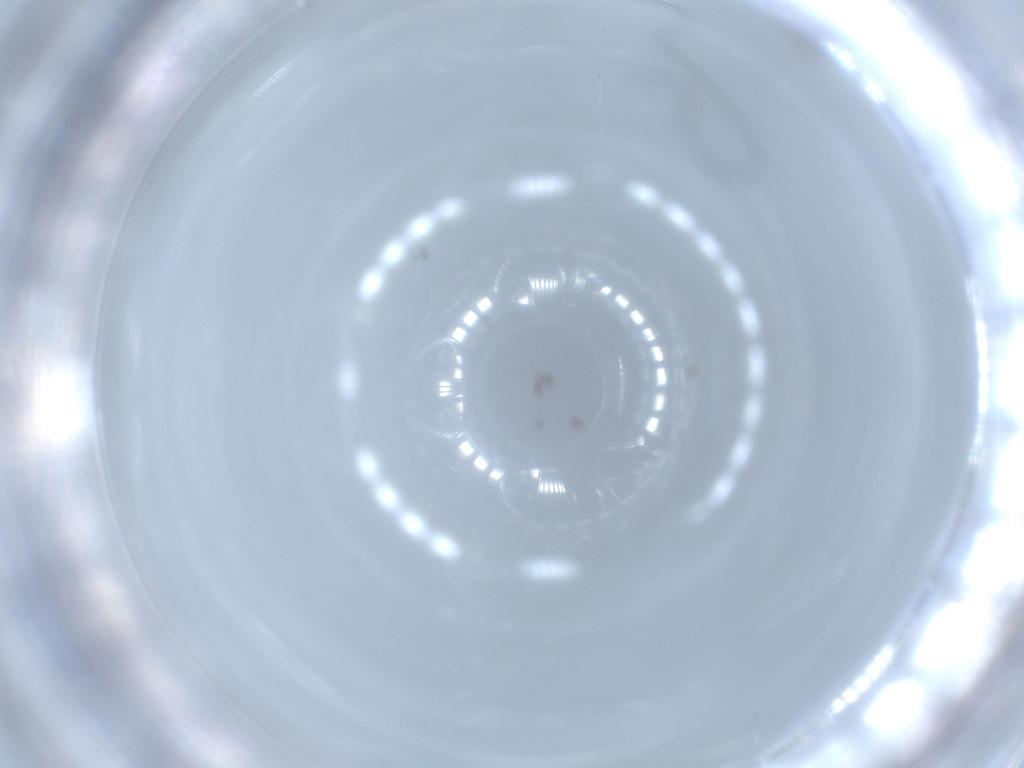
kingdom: Animalia
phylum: Arthropoda
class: Insecta
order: Diptera
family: Cecidomyiidae
